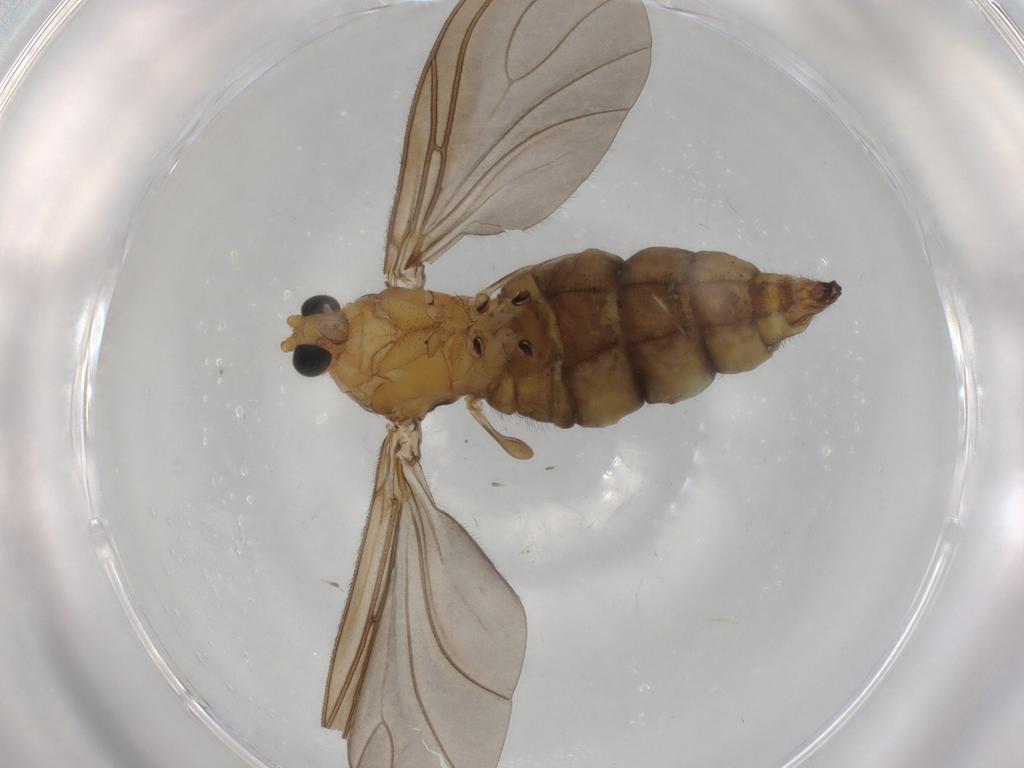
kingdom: Animalia
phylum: Arthropoda
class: Insecta
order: Diptera
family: Sciaridae
